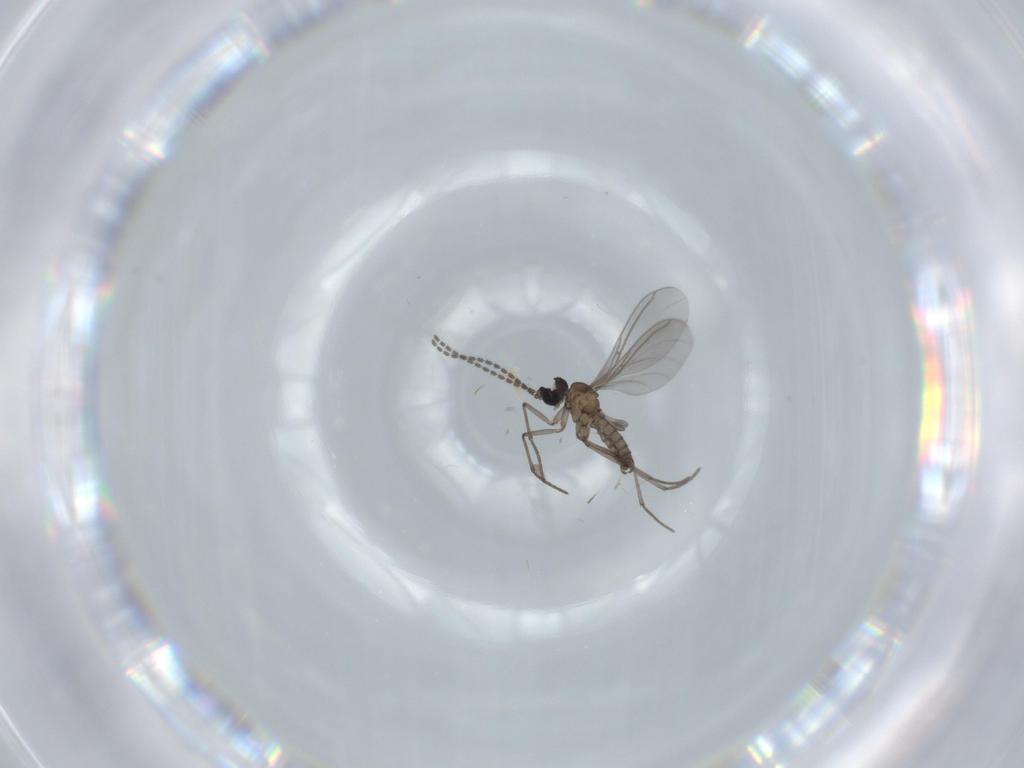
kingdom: Animalia
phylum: Arthropoda
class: Insecta
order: Diptera
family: Sciaridae
